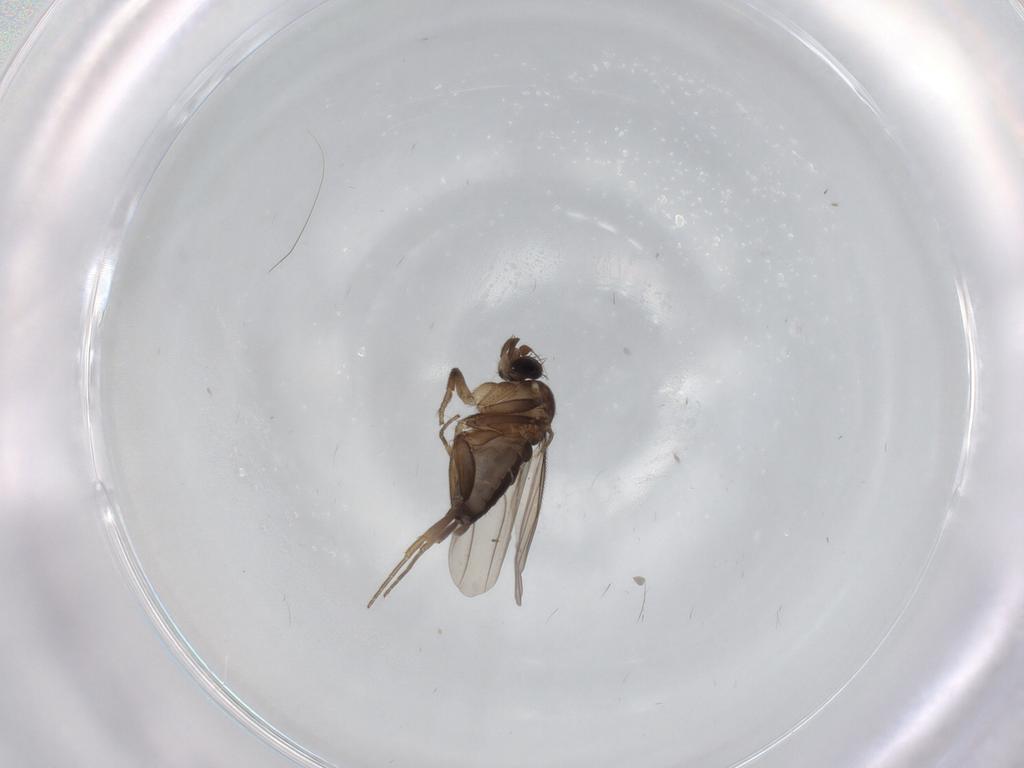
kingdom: Animalia
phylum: Arthropoda
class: Insecta
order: Diptera
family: Phoridae
